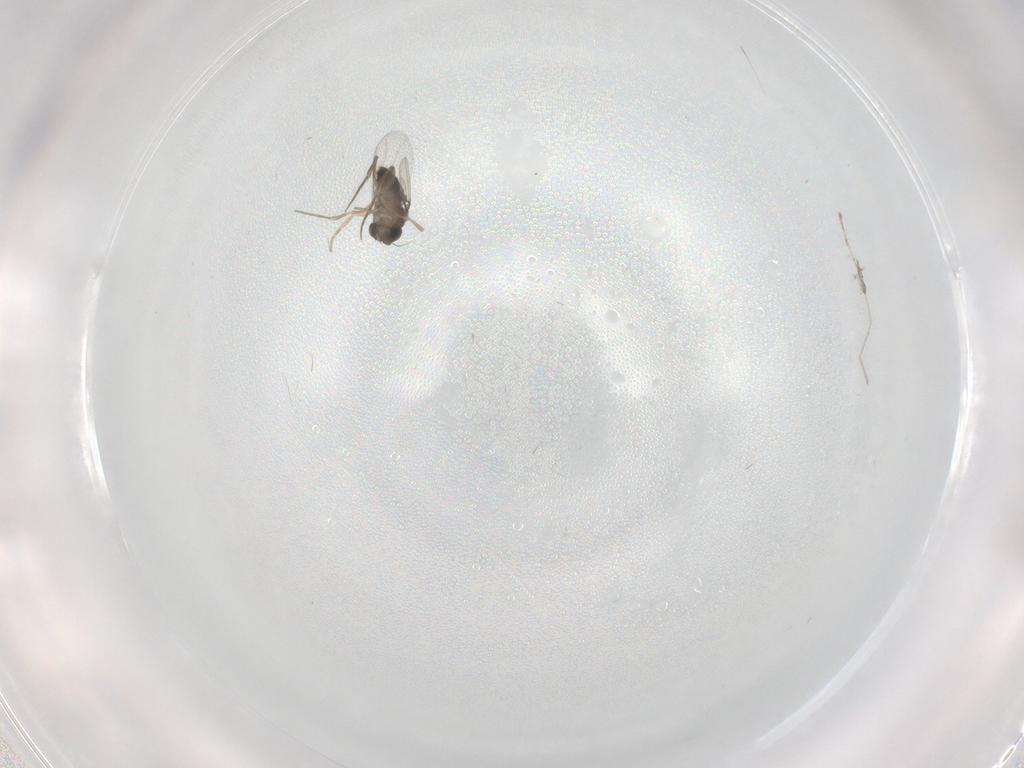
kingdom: Animalia
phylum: Arthropoda
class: Insecta
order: Diptera
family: Phoridae
